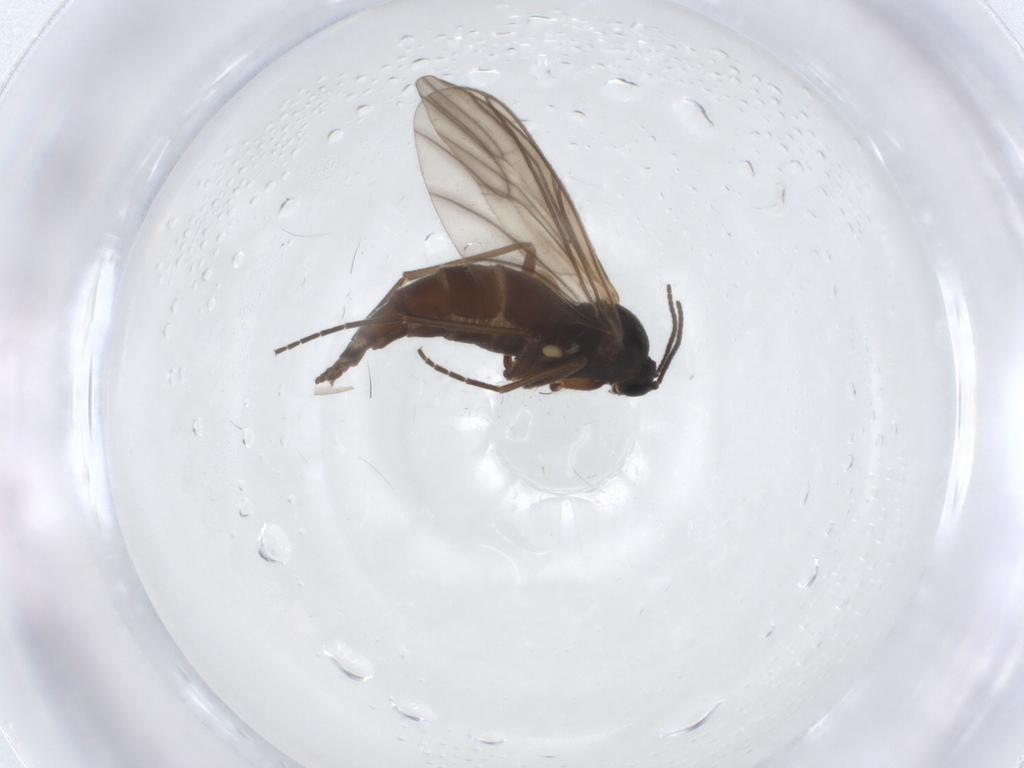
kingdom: Animalia
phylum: Arthropoda
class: Insecta
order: Diptera
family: Sciaridae
